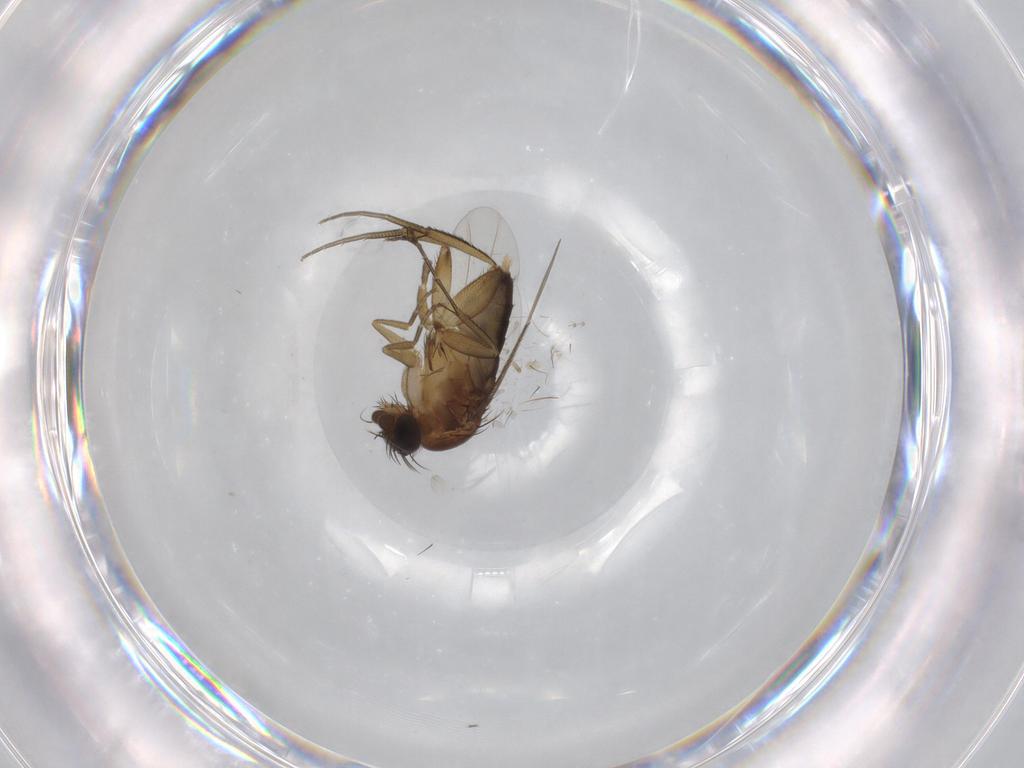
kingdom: Animalia
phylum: Arthropoda
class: Insecta
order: Diptera
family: Phoridae
